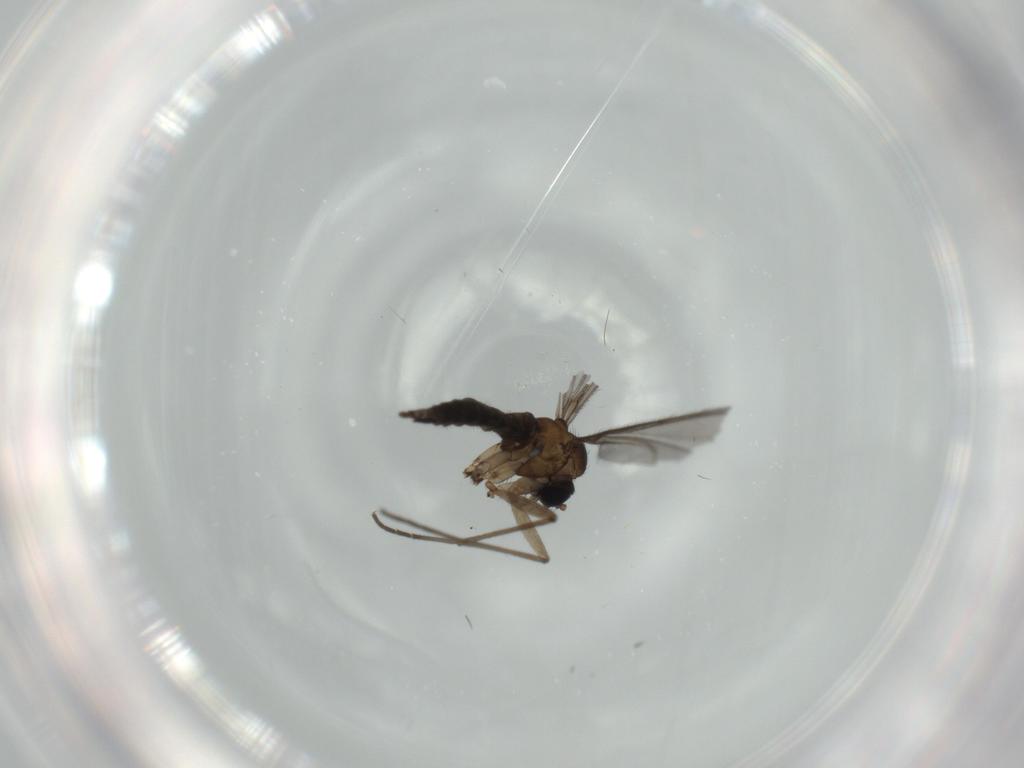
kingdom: Animalia
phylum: Arthropoda
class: Insecta
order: Diptera
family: Sciaridae
